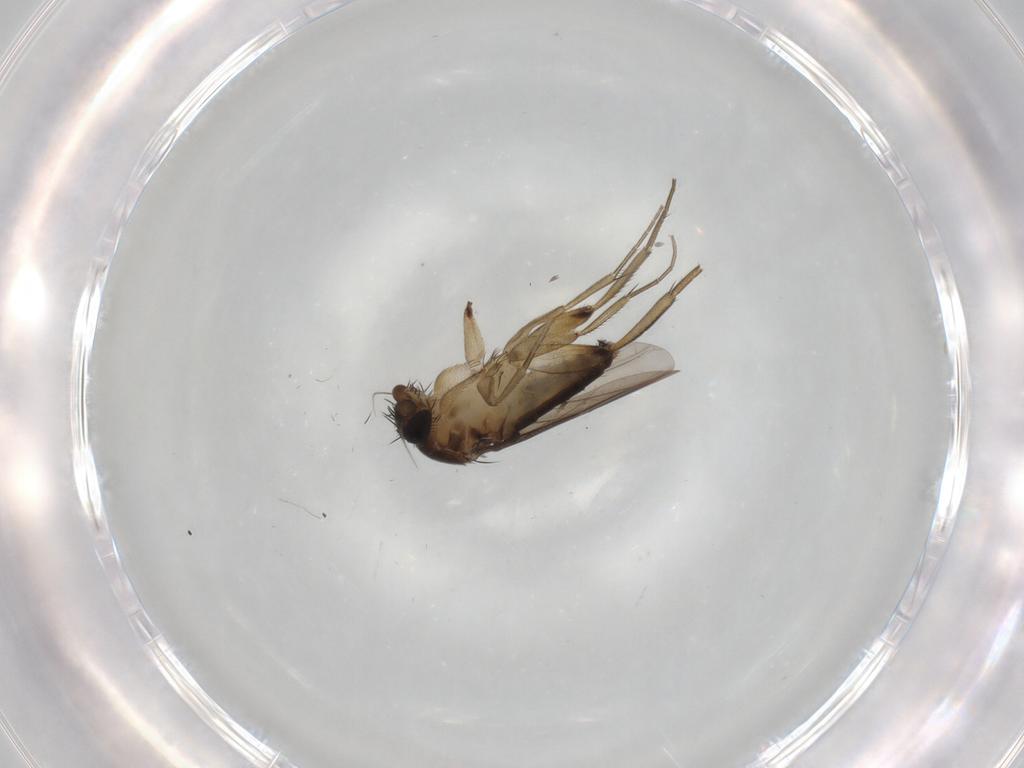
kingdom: Animalia
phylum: Arthropoda
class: Insecta
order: Diptera
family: Phoridae
